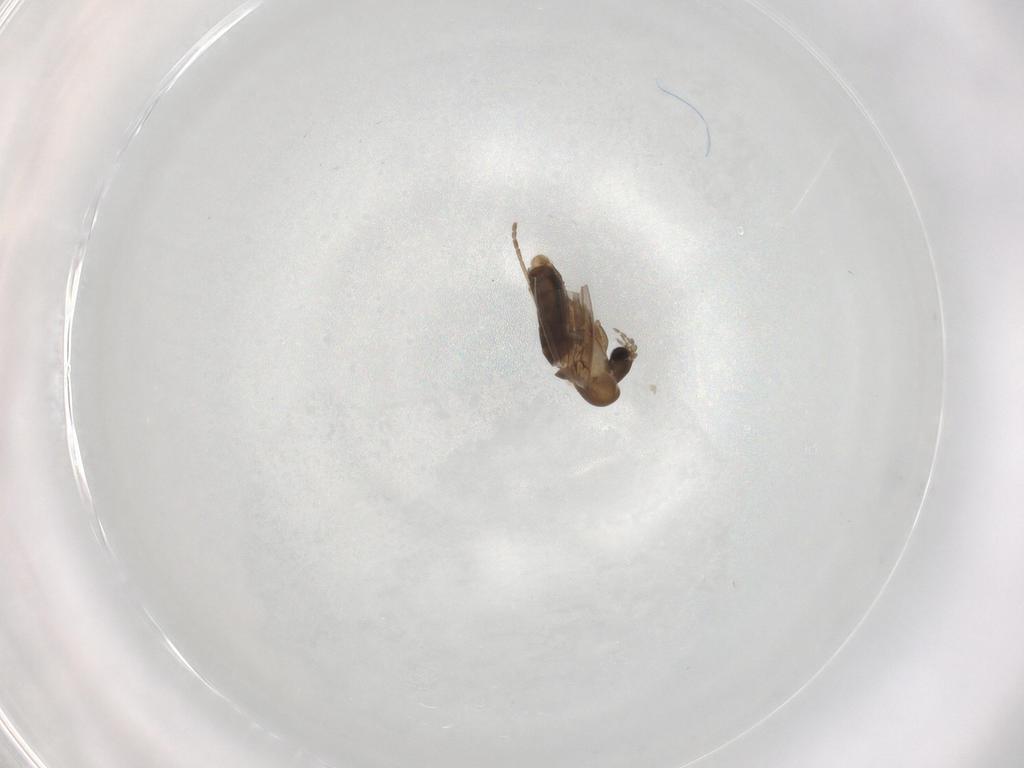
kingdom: Animalia
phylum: Arthropoda
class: Insecta
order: Diptera
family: Psychodidae
